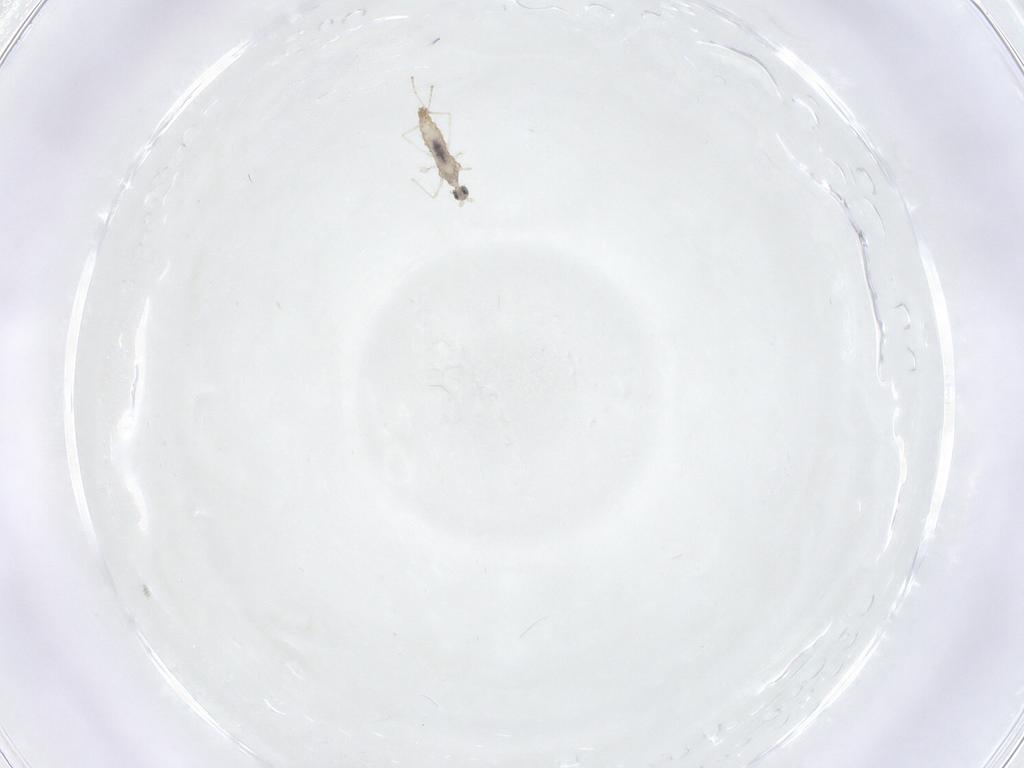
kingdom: Animalia
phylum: Arthropoda
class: Insecta
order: Diptera
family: Cecidomyiidae
